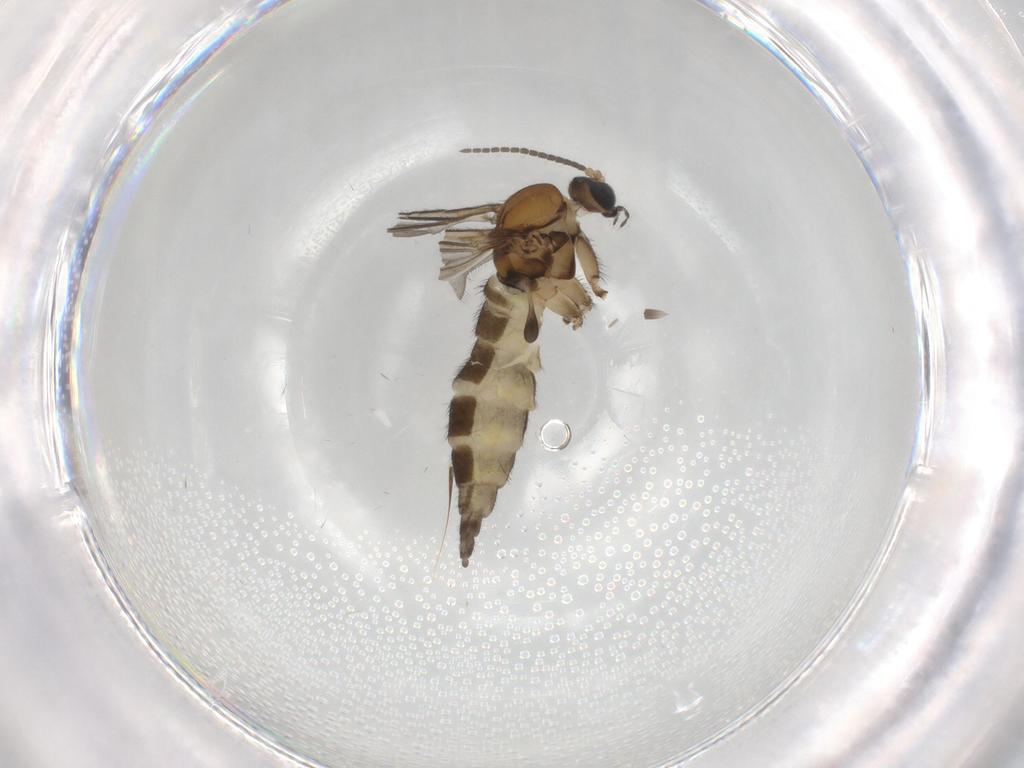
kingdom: Animalia
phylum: Arthropoda
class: Insecta
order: Diptera
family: Sciaridae
